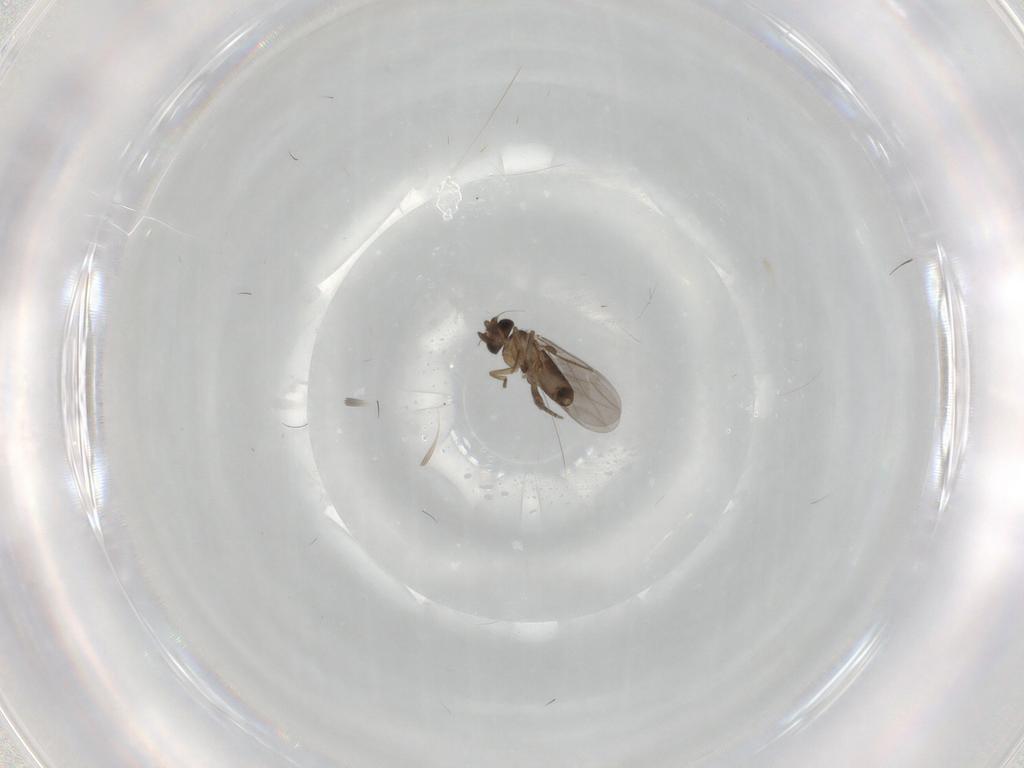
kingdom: Animalia
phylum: Arthropoda
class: Insecta
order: Diptera
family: Phoridae
